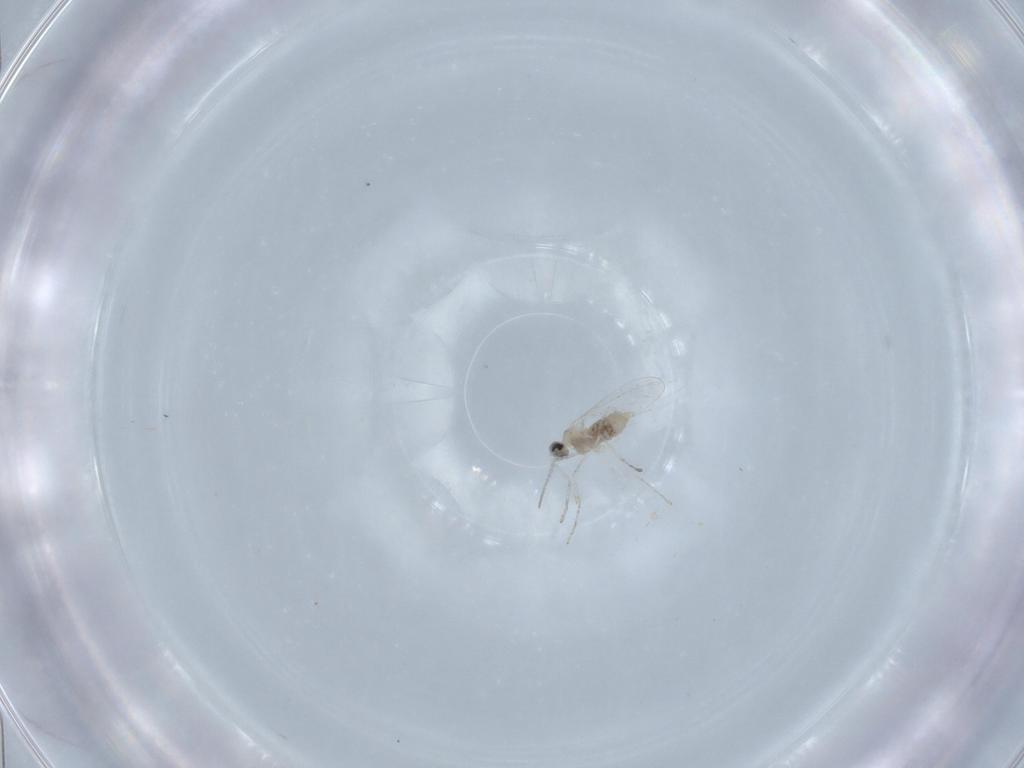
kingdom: Animalia
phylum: Arthropoda
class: Insecta
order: Diptera
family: Cecidomyiidae
